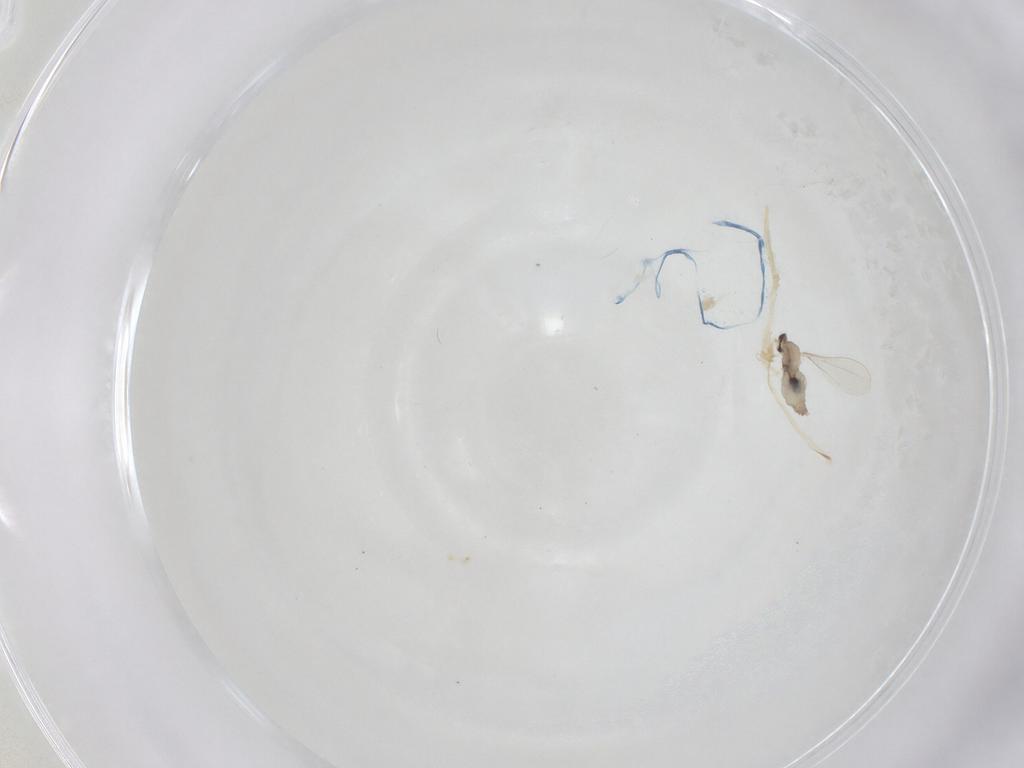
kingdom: Animalia
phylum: Arthropoda
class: Insecta
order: Diptera
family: Cecidomyiidae
